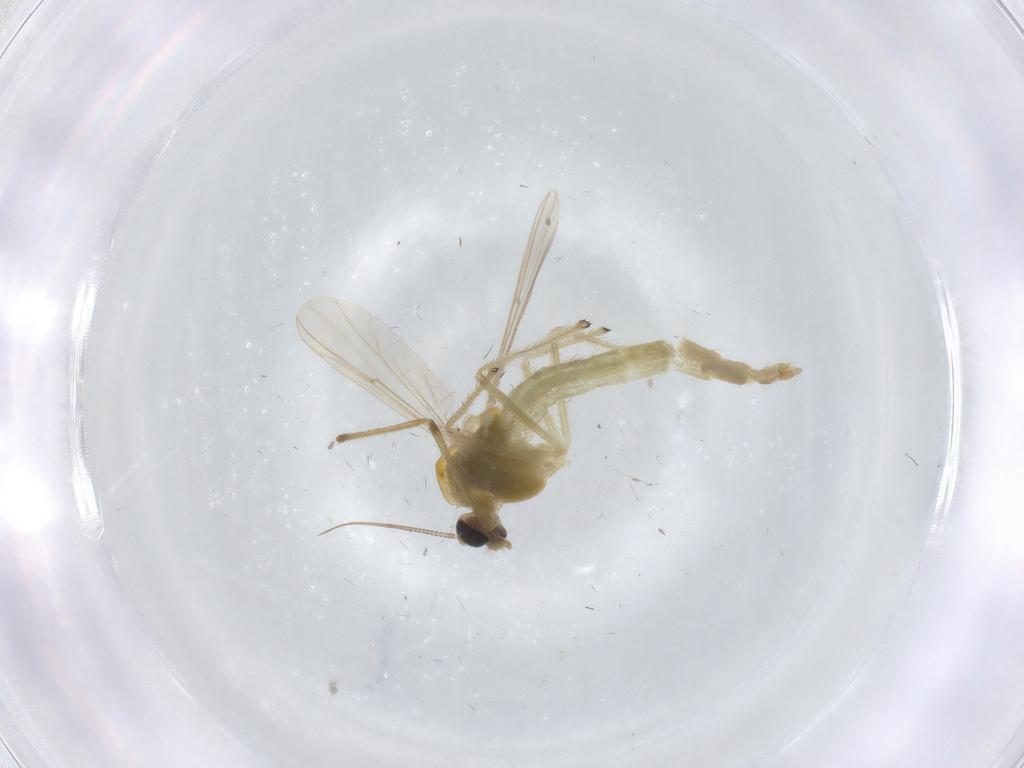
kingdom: Animalia
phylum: Arthropoda
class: Insecta
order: Diptera
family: Chironomidae
